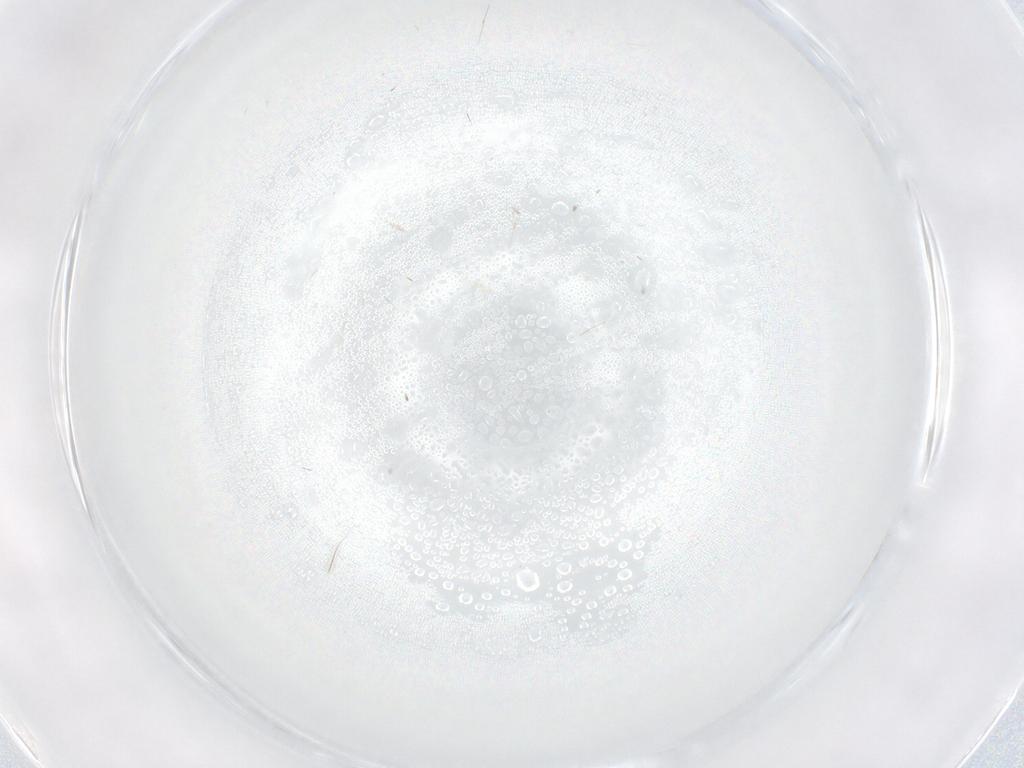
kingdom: Animalia
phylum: Arthropoda
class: Insecta
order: Diptera
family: Cecidomyiidae
